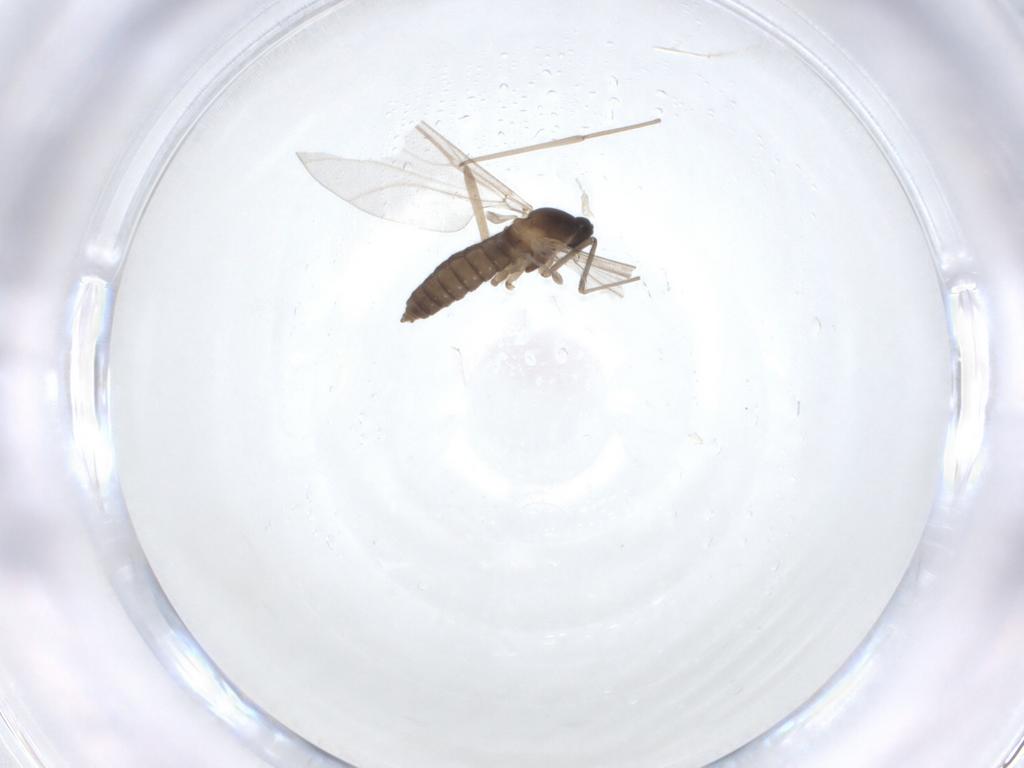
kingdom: Animalia
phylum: Arthropoda
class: Insecta
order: Diptera
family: Cecidomyiidae
